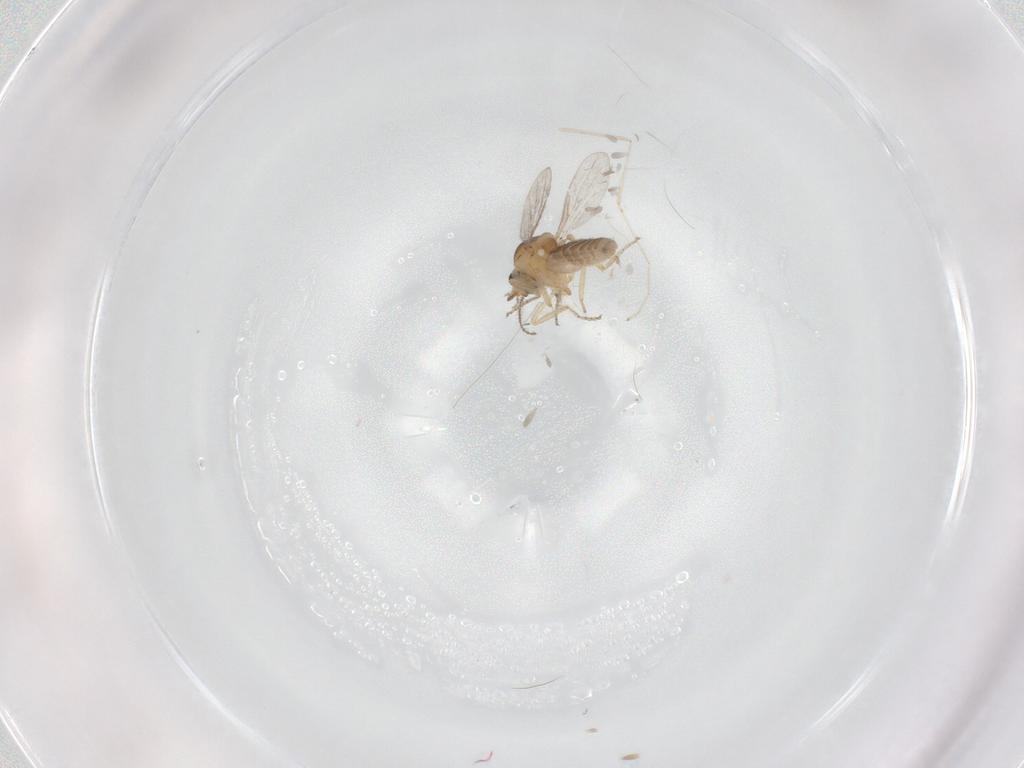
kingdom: Animalia
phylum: Arthropoda
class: Insecta
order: Diptera
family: Ceratopogonidae
